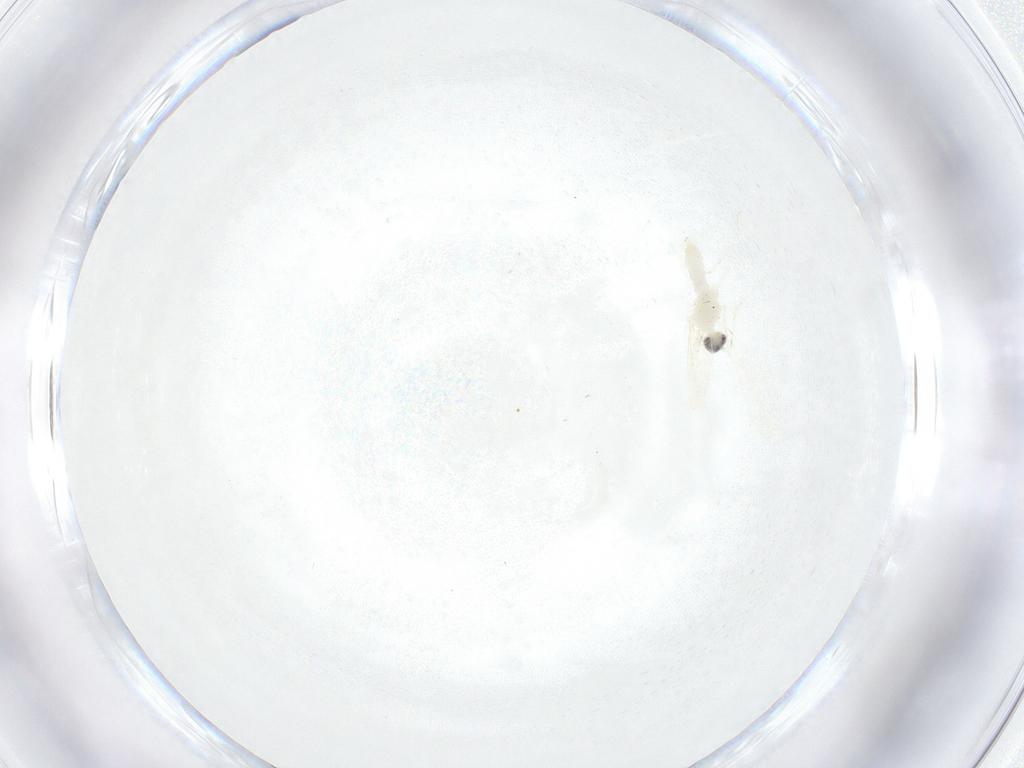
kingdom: Animalia
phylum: Arthropoda
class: Insecta
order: Diptera
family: Cecidomyiidae
